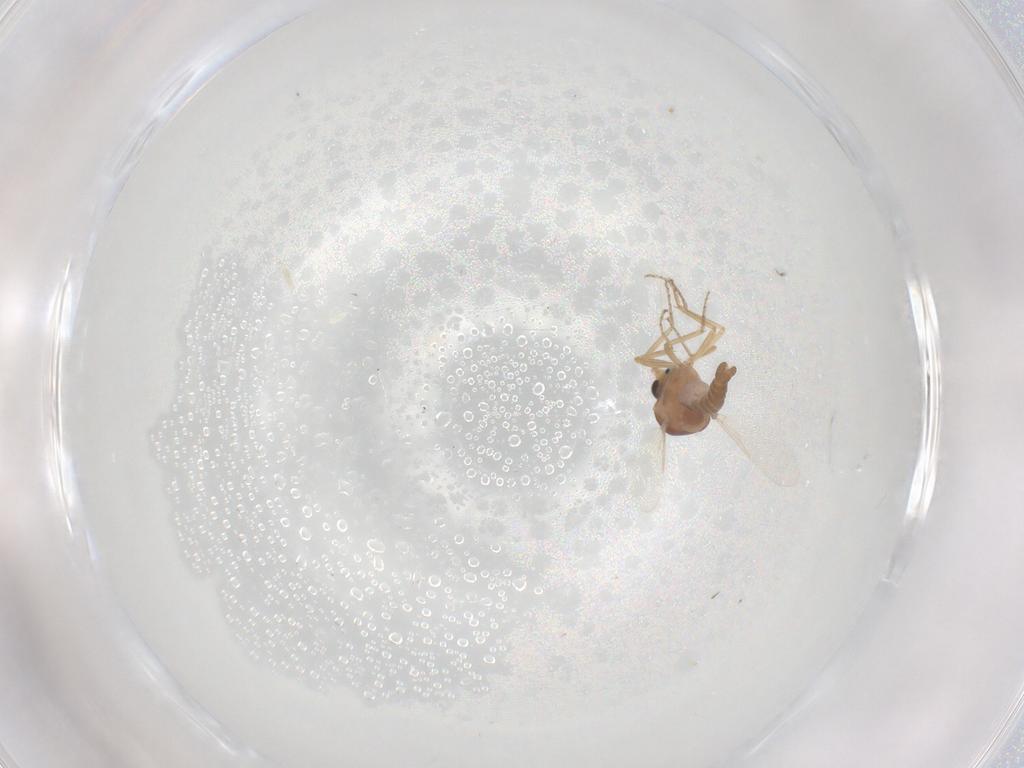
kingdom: Animalia
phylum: Arthropoda
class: Insecta
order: Diptera
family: Ceratopogonidae
